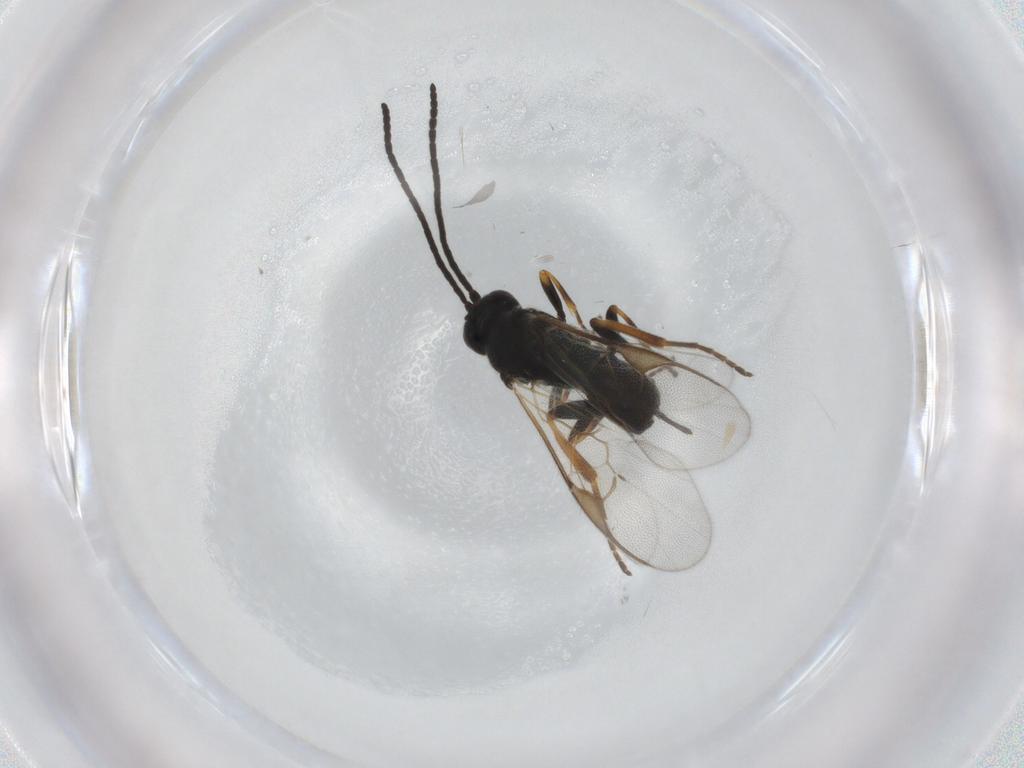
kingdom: Animalia
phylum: Arthropoda
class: Insecta
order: Hymenoptera
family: Braconidae
